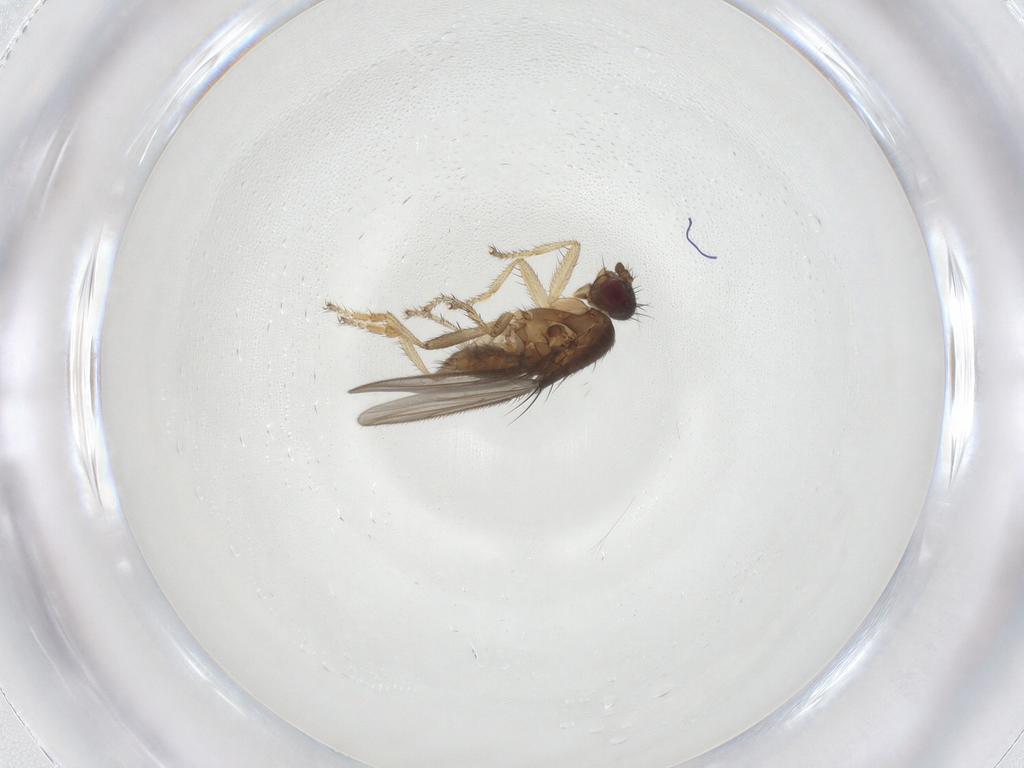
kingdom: Animalia
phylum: Arthropoda
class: Insecta
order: Diptera
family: Sphaeroceridae
